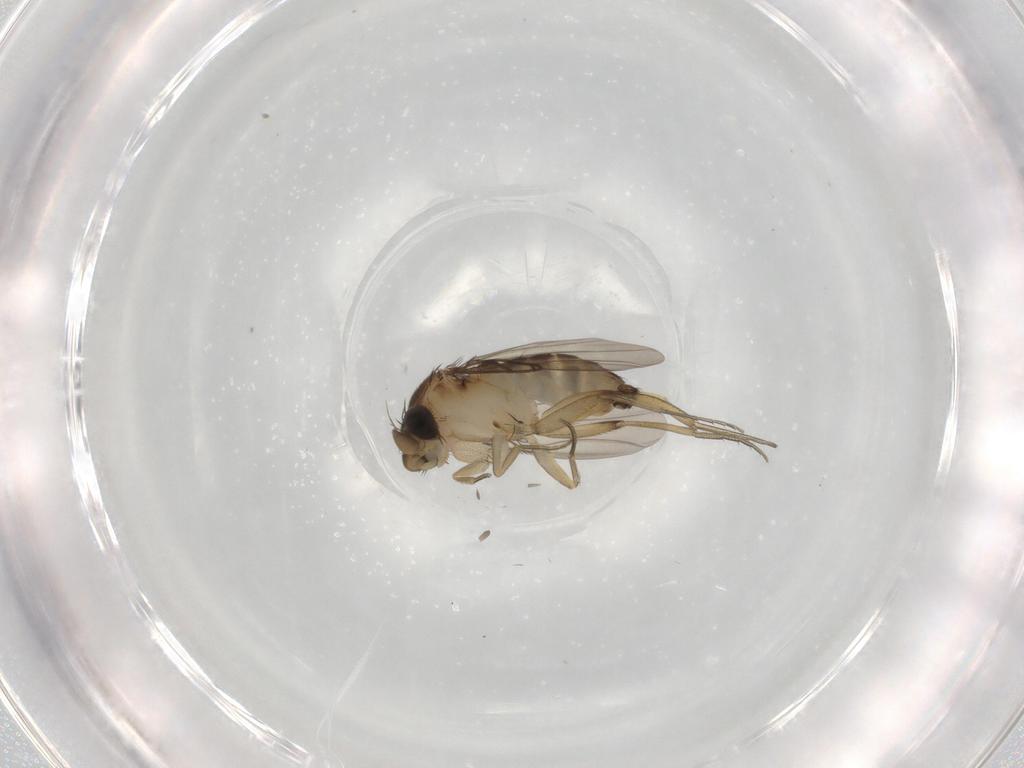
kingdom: Animalia
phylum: Arthropoda
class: Insecta
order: Diptera
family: Phoridae
